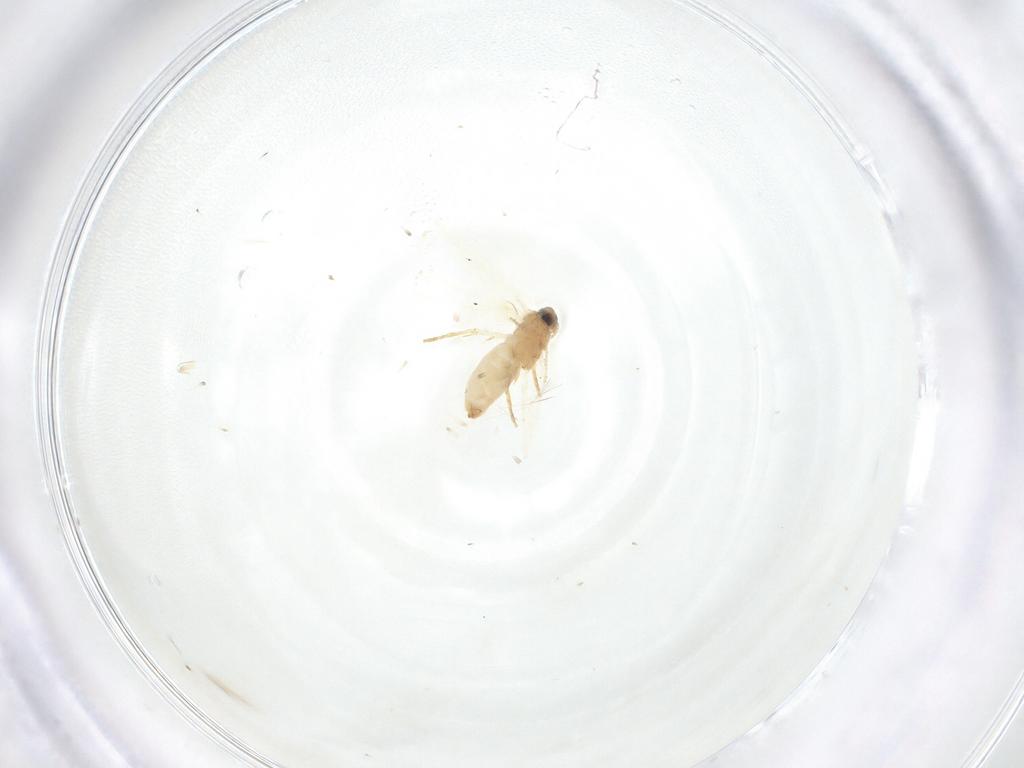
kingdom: Animalia
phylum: Arthropoda
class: Insecta
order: Lepidoptera
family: Crambidae
